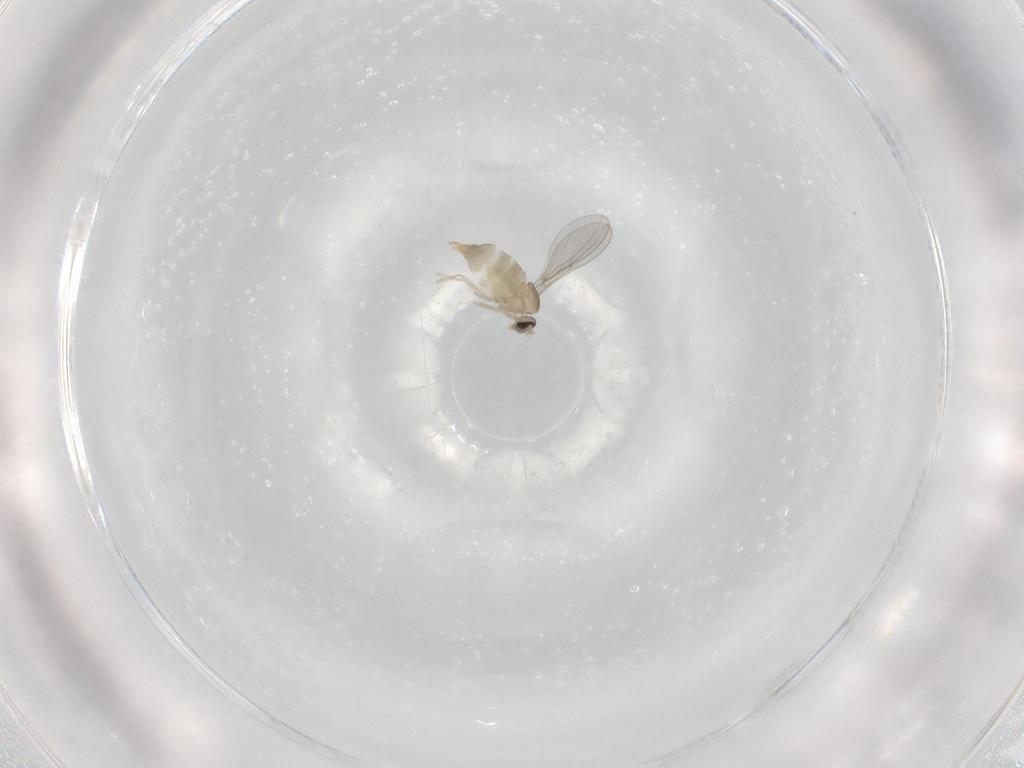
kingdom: Animalia
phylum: Arthropoda
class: Insecta
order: Diptera
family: Cecidomyiidae
